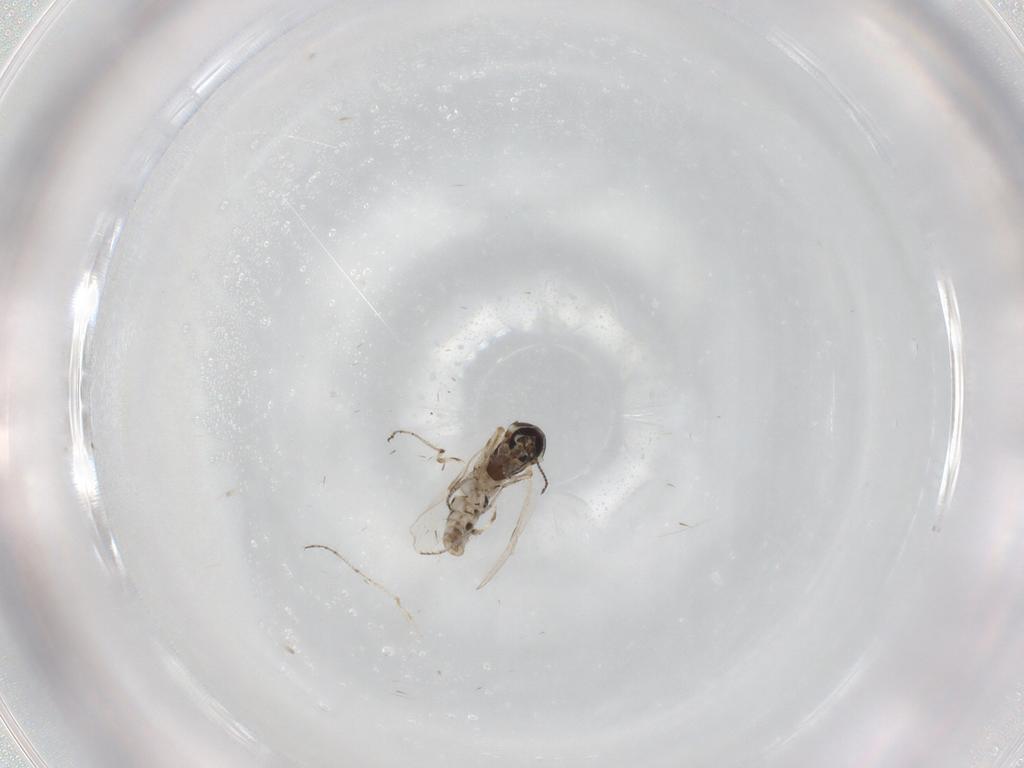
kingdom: Animalia
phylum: Arthropoda
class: Insecta
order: Diptera
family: Ceratopogonidae
